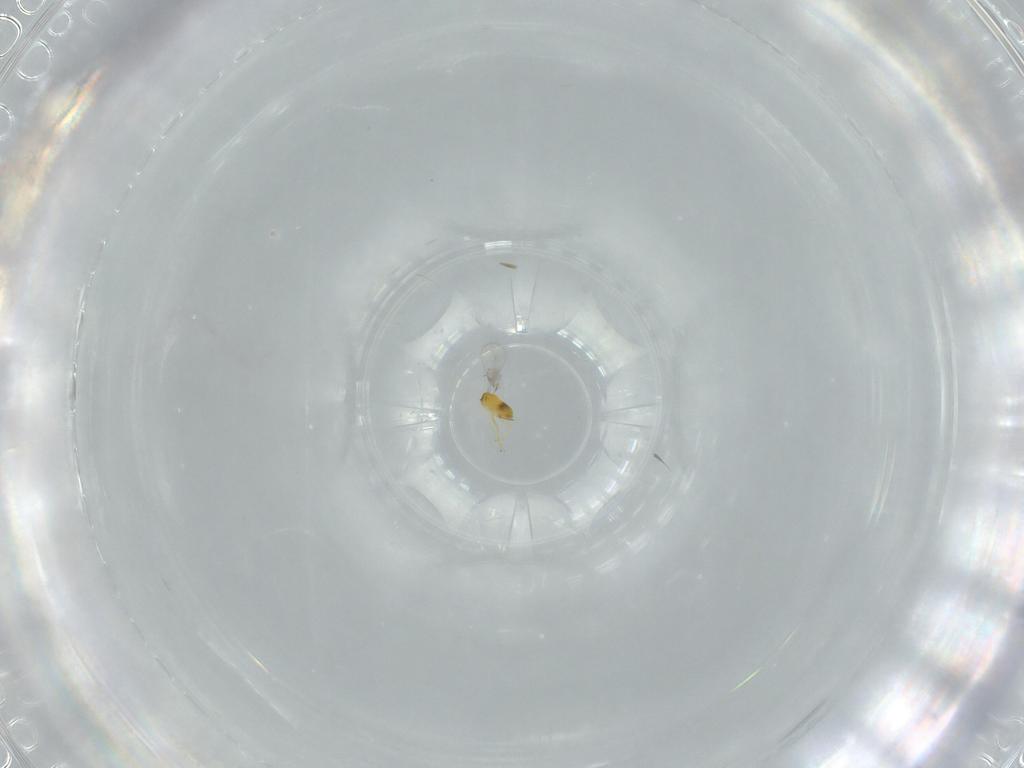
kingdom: Animalia
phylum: Arthropoda
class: Insecta
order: Hymenoptera
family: Trichogrammatidae
